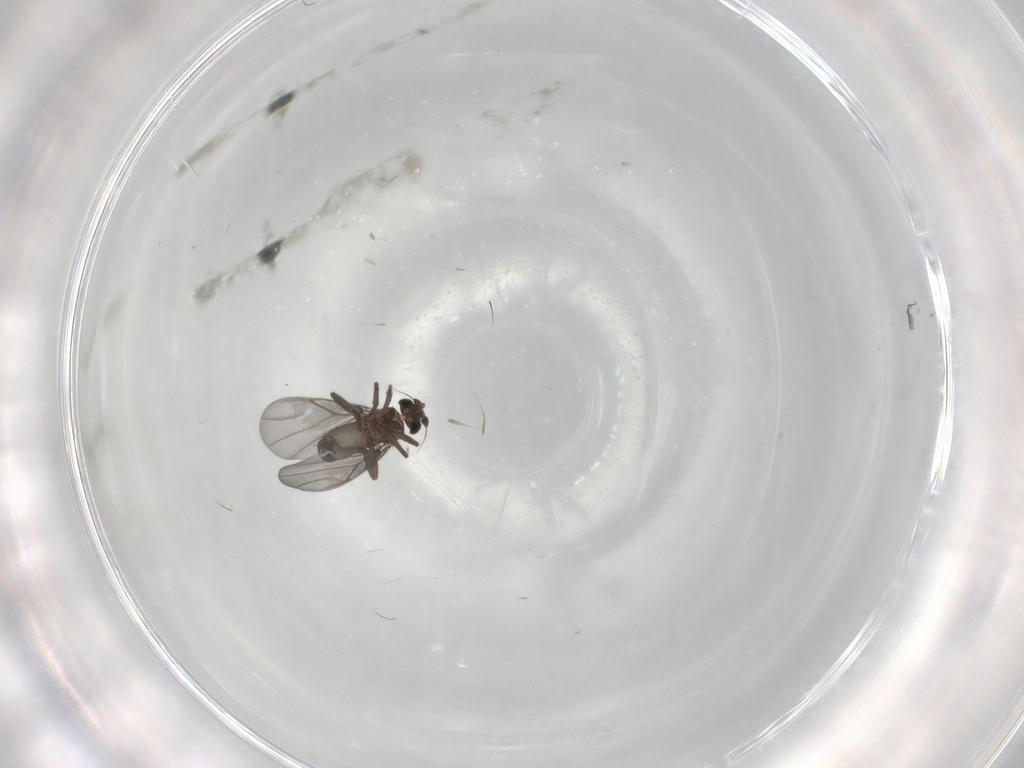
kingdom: Animalia
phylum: Arthropoda
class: Insecta
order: Diptera
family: Phoridae
